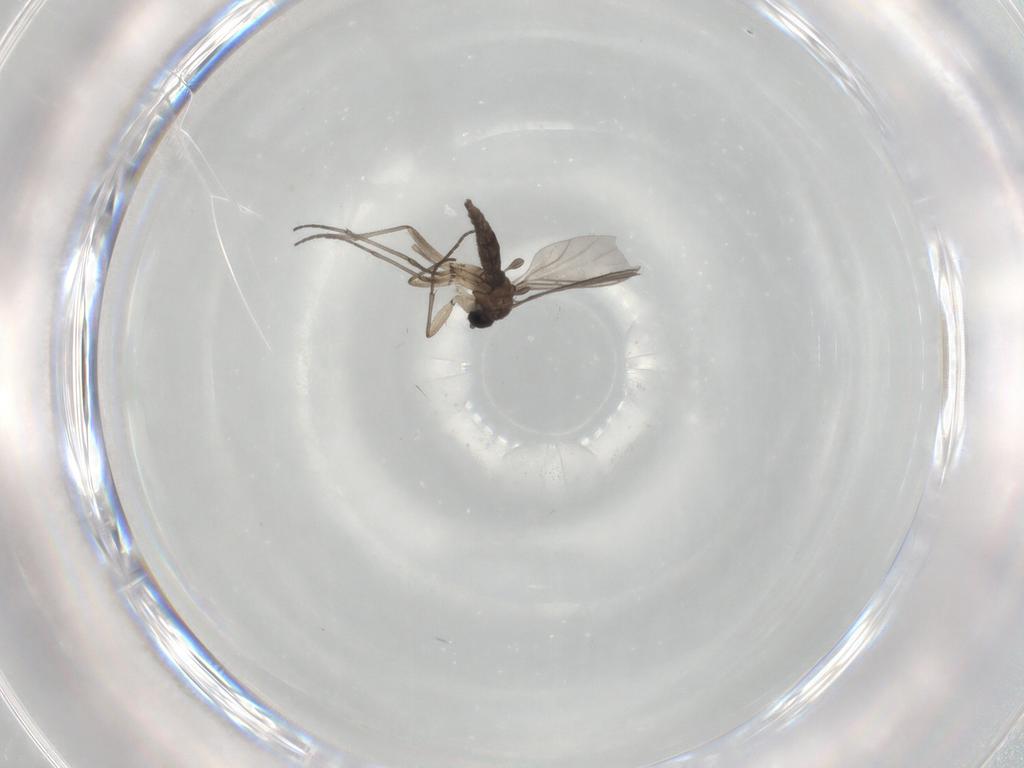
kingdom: Animalia
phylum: Arthropoda
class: Insecta
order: Diptera
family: Sciaridae
